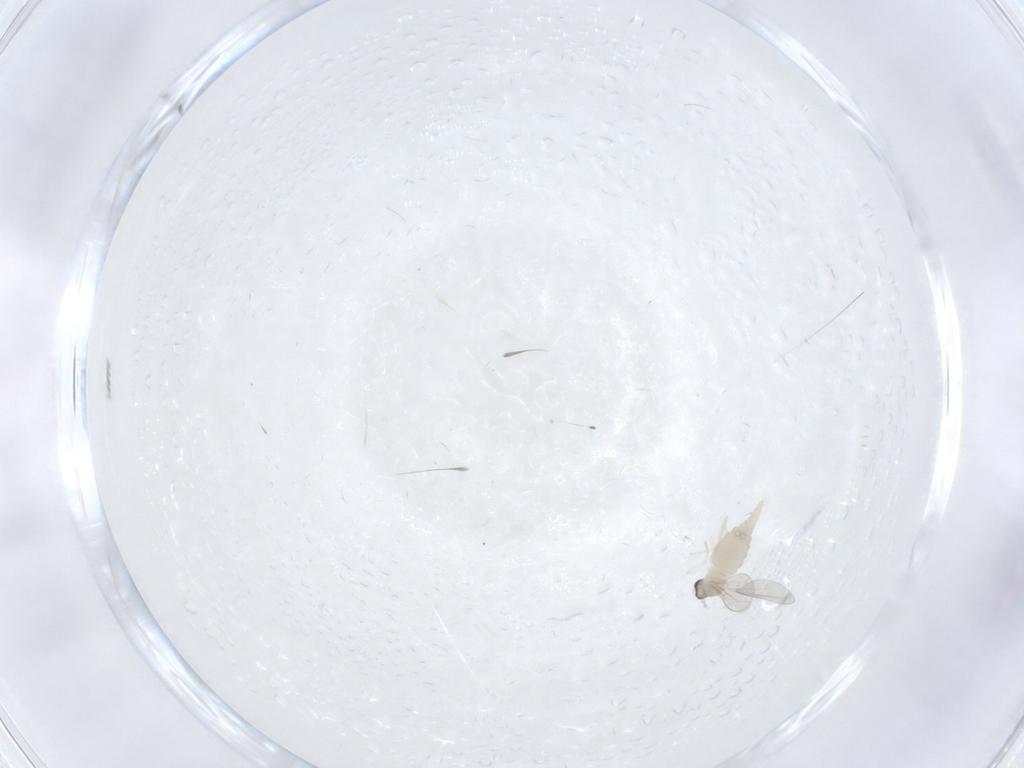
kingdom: Animalia
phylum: Arthropoda
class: Insecta
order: Diptera
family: Cecidomyiidae
